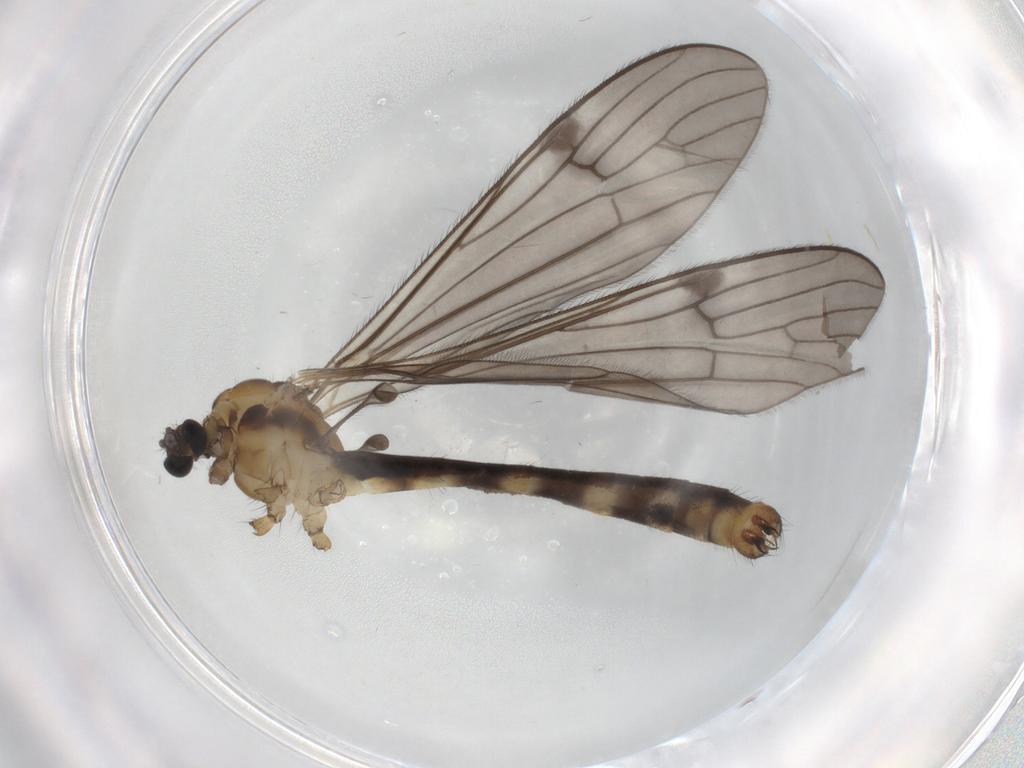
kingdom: Animalia
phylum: Arthropoda
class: Insecta
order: Diptera
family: Limoniidae
